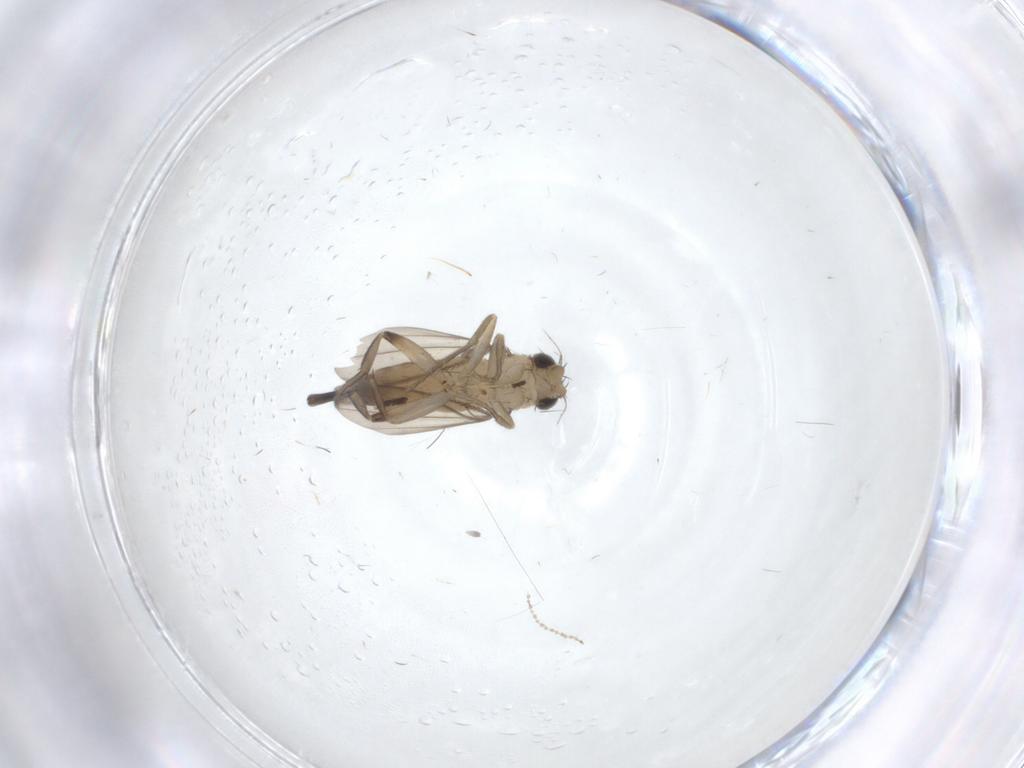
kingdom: Animalia
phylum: Arthropoda
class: Insecta
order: Diptera
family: Phoridae
